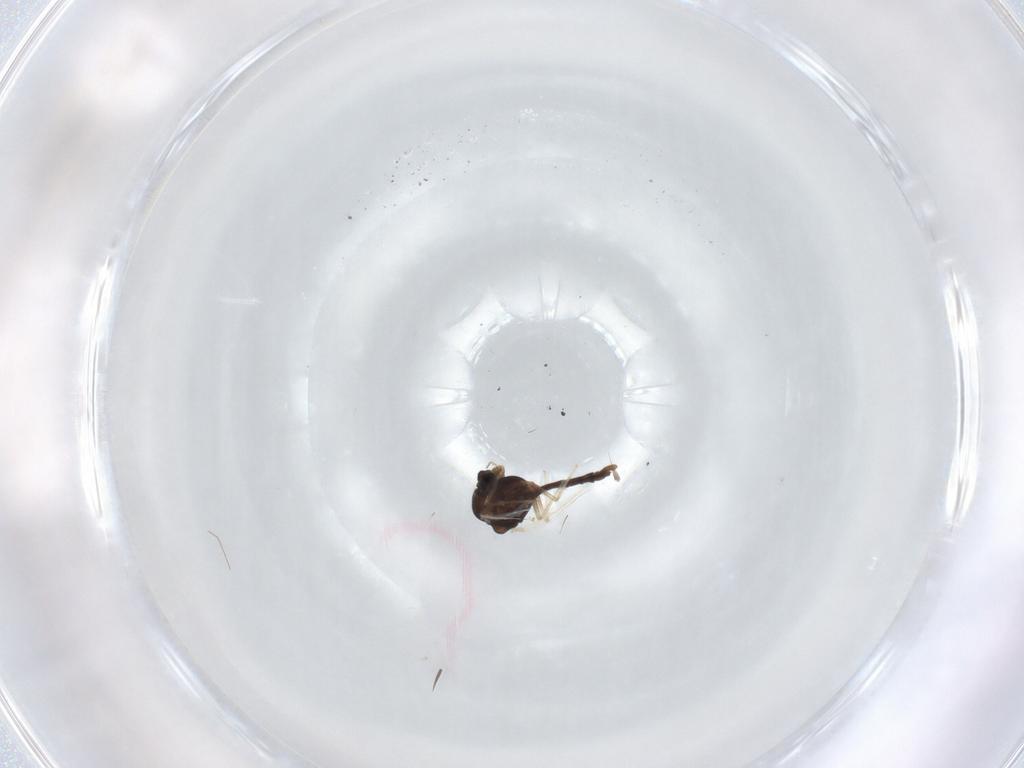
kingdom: Animalia
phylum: Arthropoda
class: Insecta
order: Diptera
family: Chironomidae
